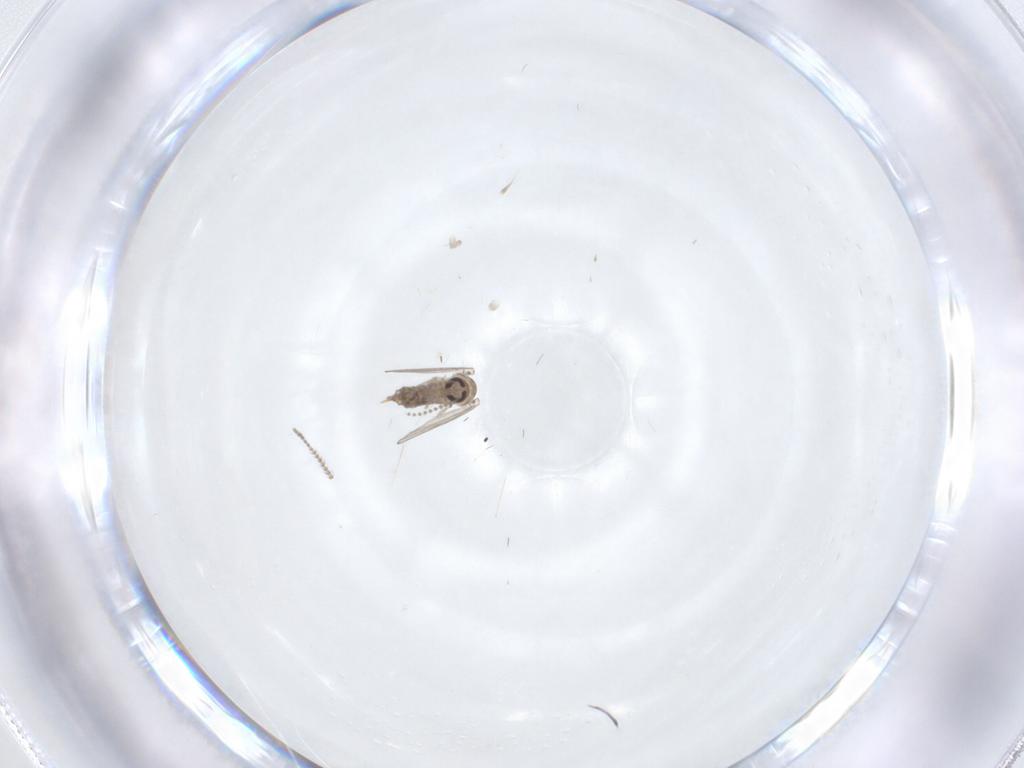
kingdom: Animalia
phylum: Arthropoda
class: Insecta
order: Diptera
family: Psychodidae
